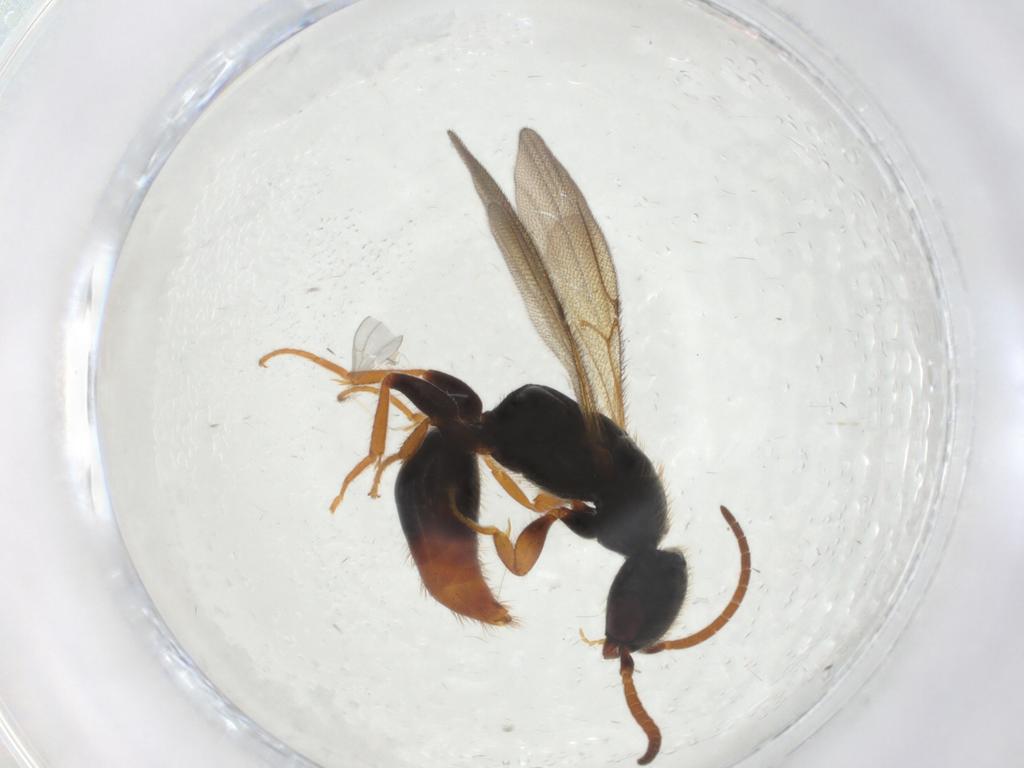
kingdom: Animalia
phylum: Arthropoda
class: Insecta
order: Hymenoptera
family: Bethylidae
